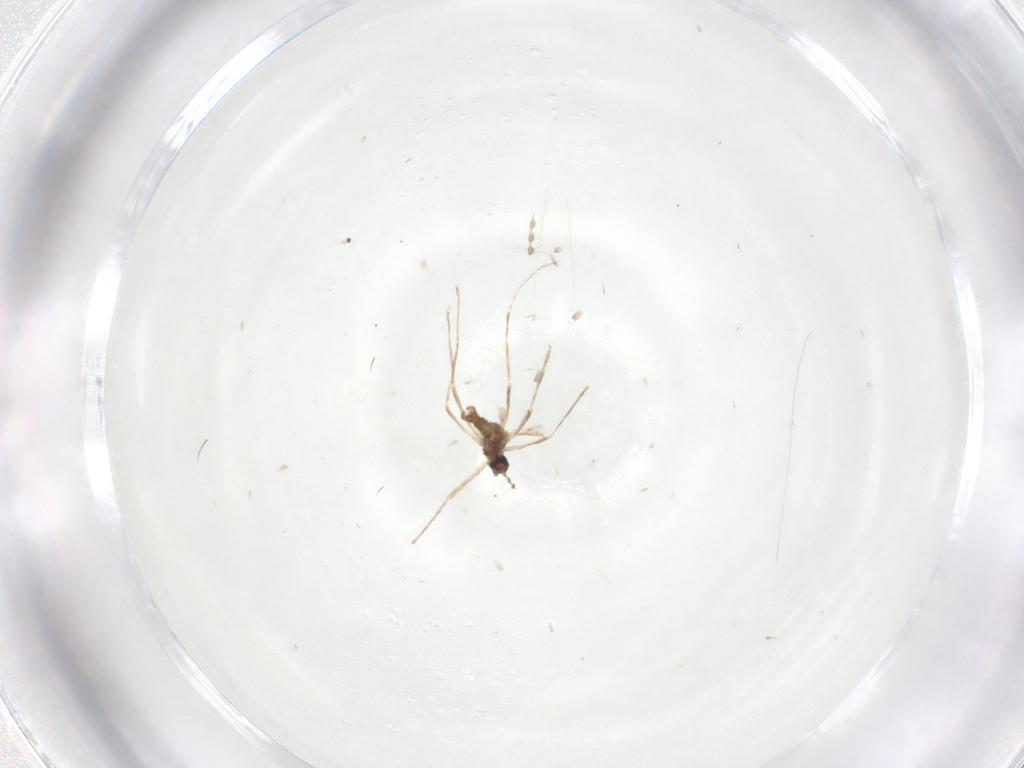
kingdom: Animalia
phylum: Arthropoda
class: Insecta
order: Diptera
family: Cecidomyiidae
